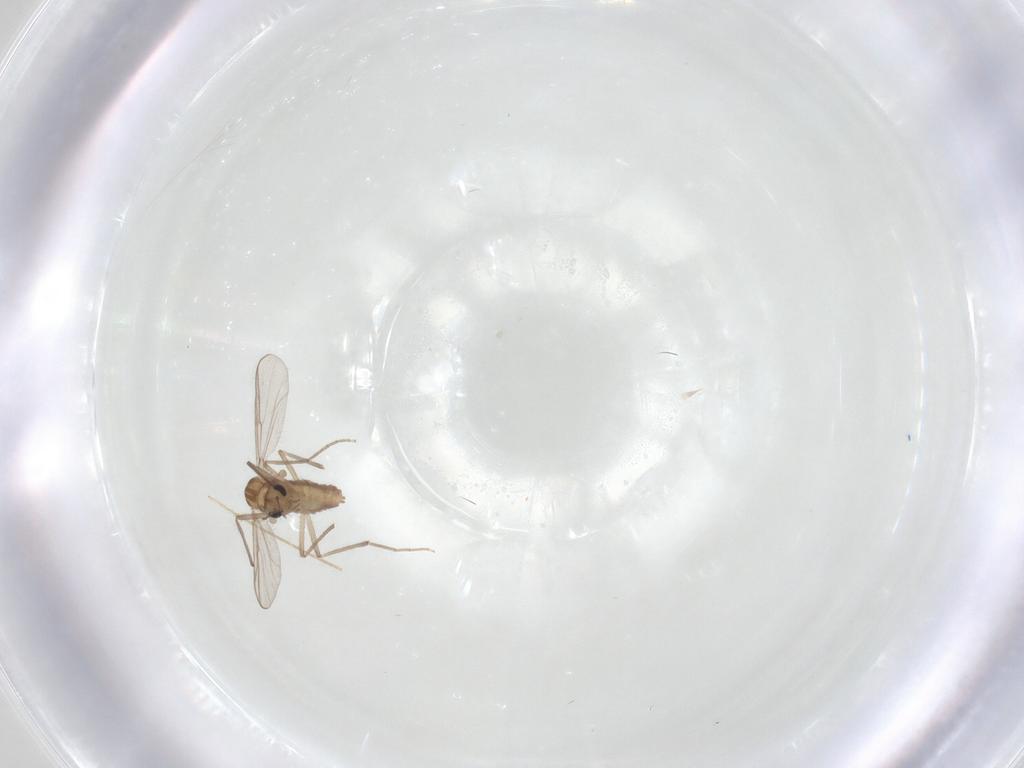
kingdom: Animalia
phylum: Arthropoda
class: Insecta
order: Diptera
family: Chironomidae
